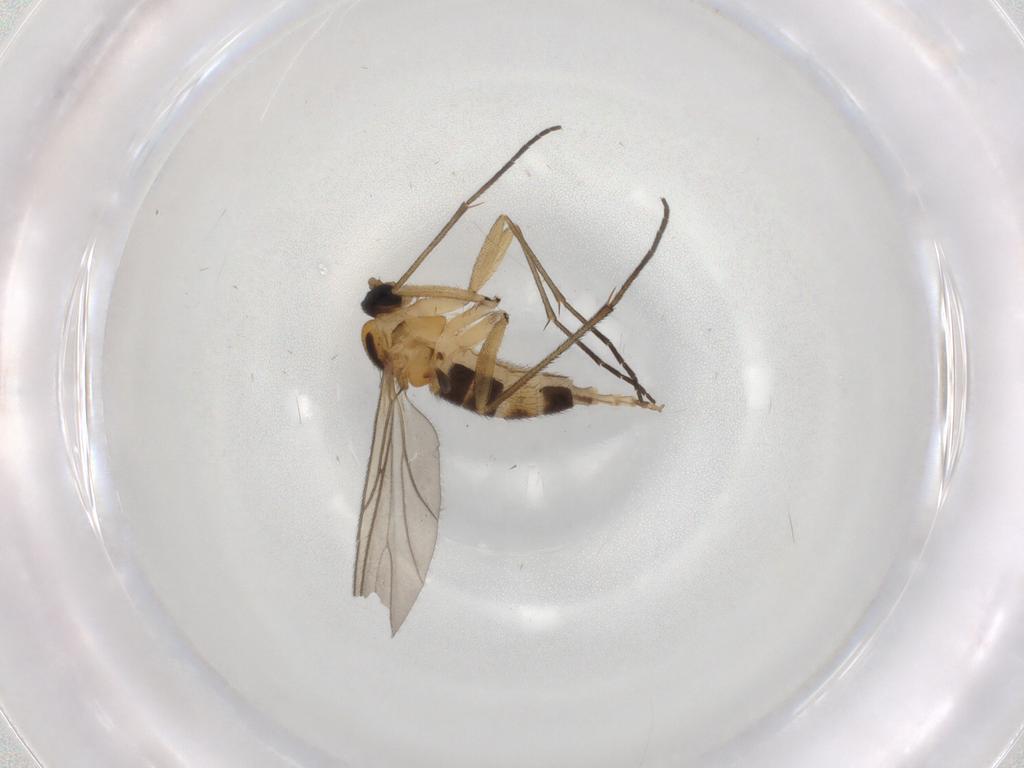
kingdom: Animalia
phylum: Arthropoda
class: Insecta
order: Diptera
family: Sciaridae
